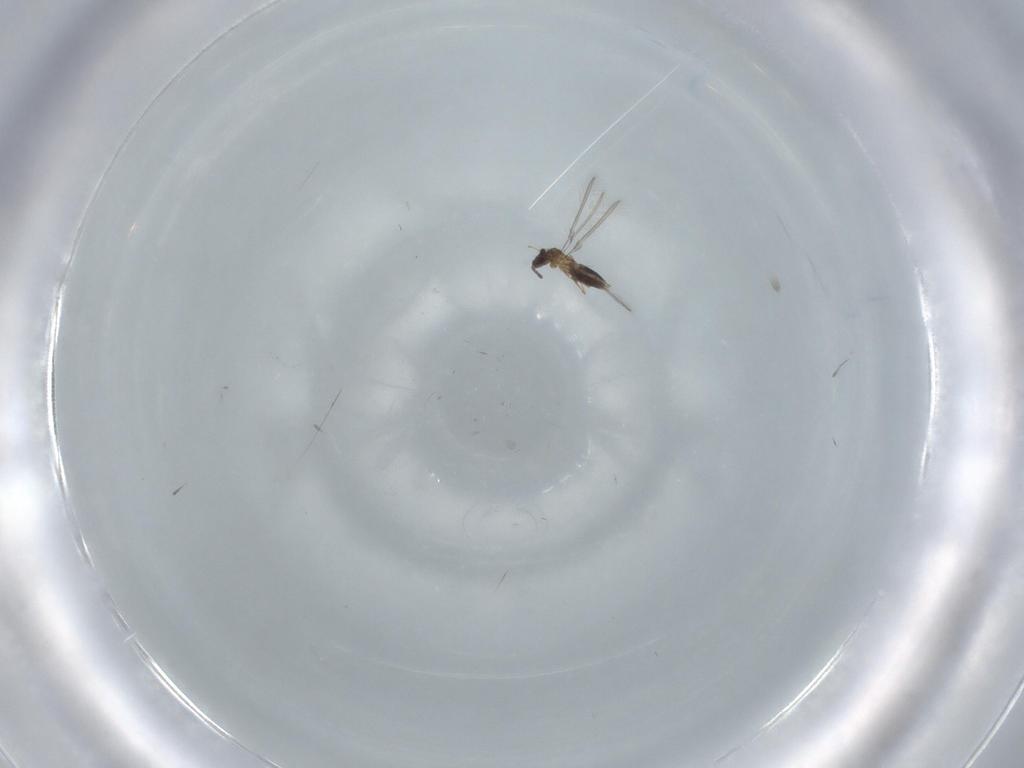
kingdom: Animalia
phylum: Arthropoda
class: Insecta
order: Hymenoptera
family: Mymaridae
